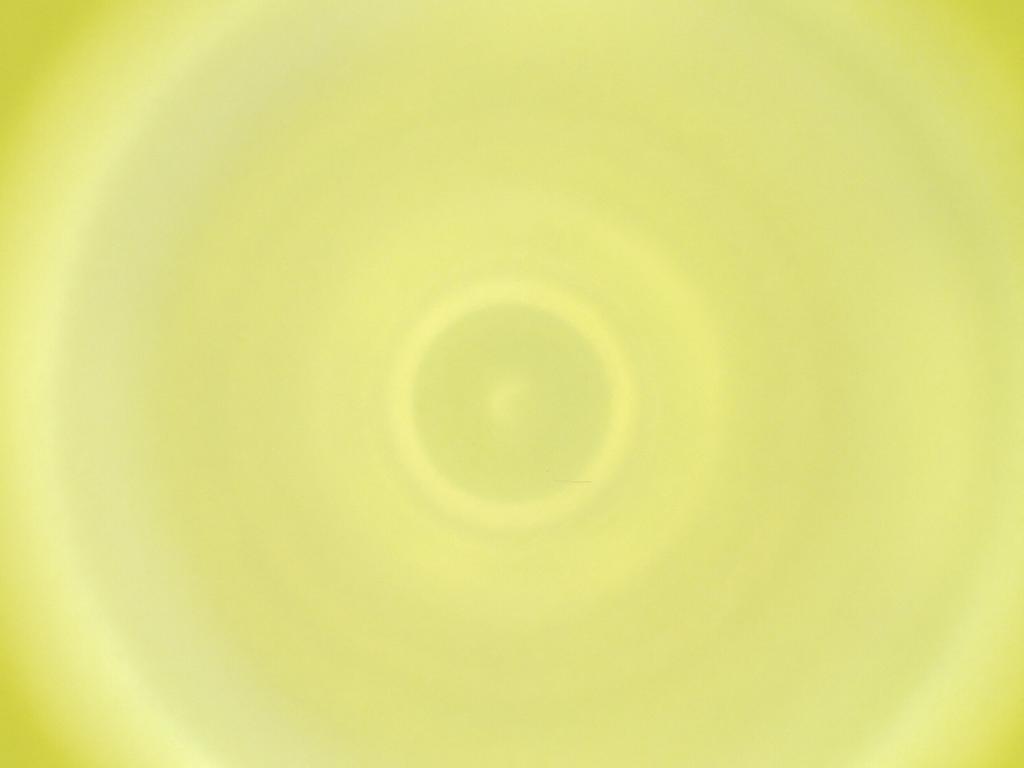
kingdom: Animalia
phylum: Arthropoda
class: Insecta
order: Diptera
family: Cecidomyiidae
